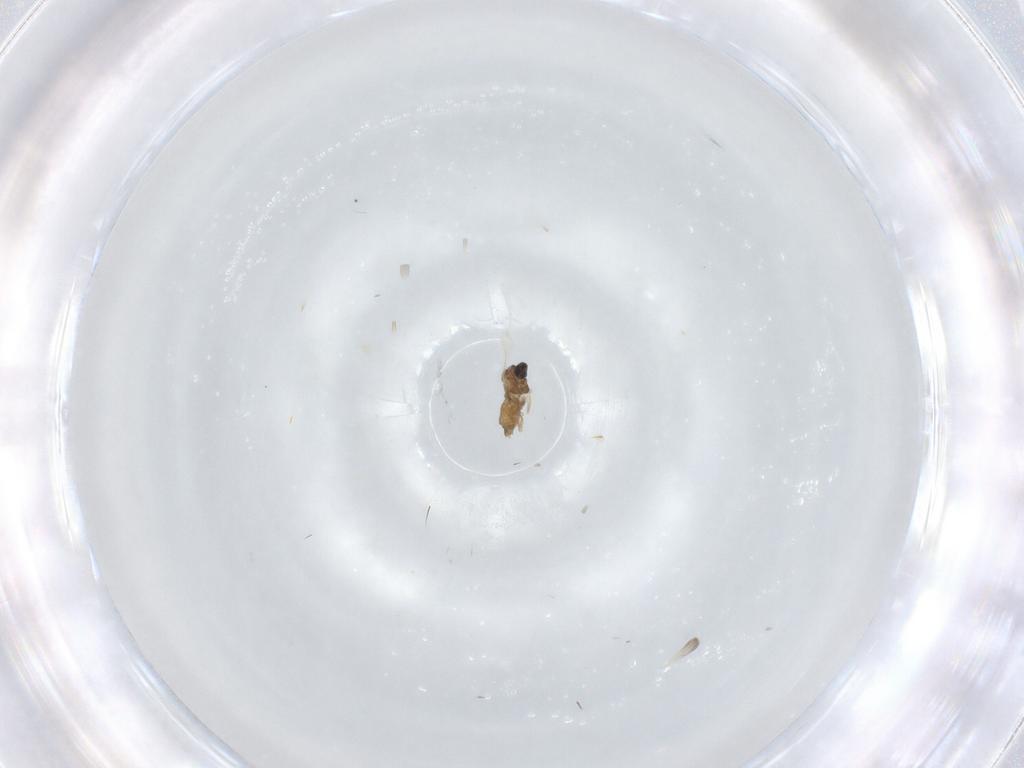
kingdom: Animalia
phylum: Arthropoda
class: Insecta
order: Diptera
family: Cecidomyiidae
